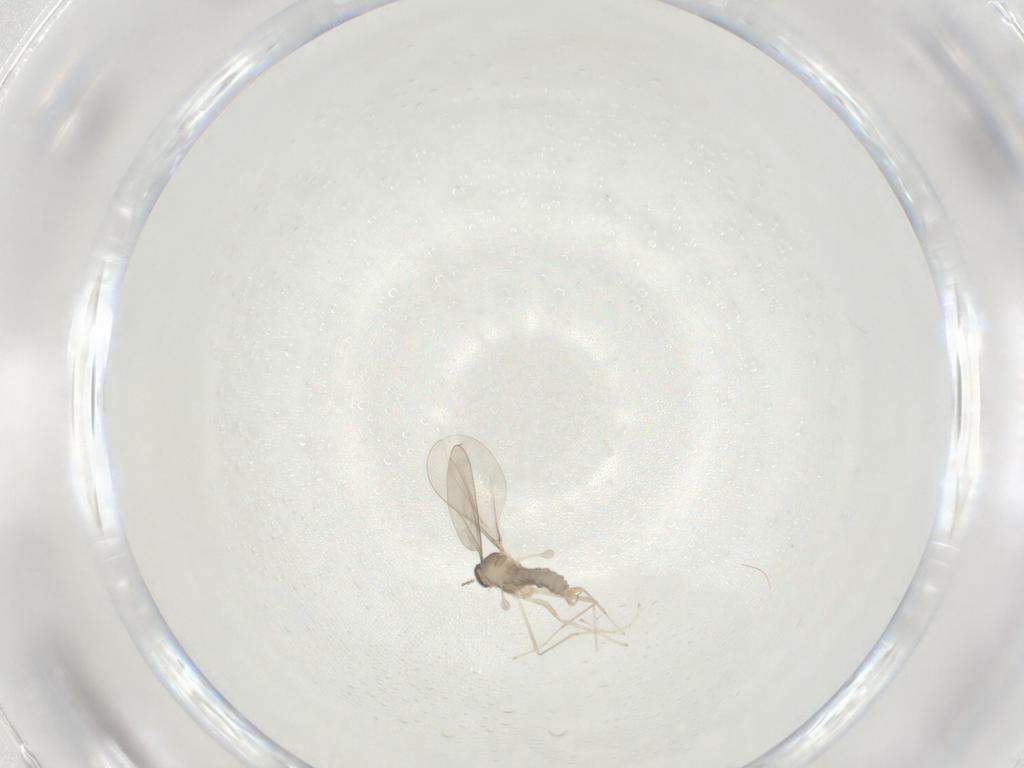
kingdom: Animalia
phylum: Arthropoda
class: Insecta
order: Diptera
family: Cecidomyiidae
